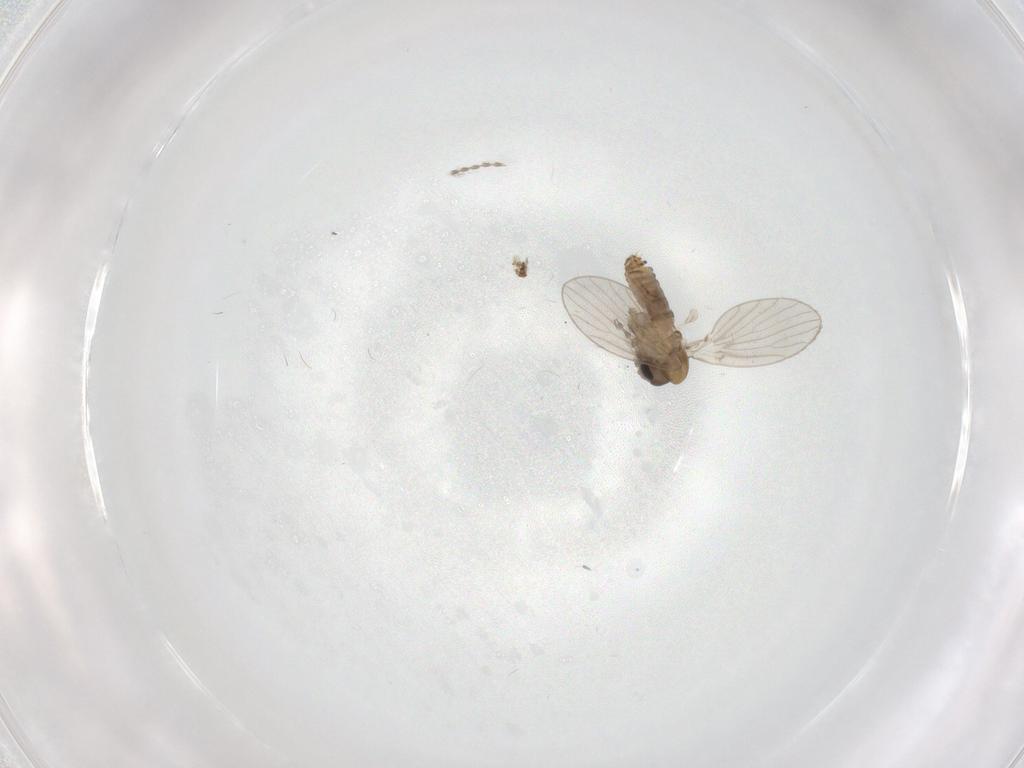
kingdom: Animalia
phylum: Arthropoda
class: Insecta
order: Diptera
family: Psychodidae
